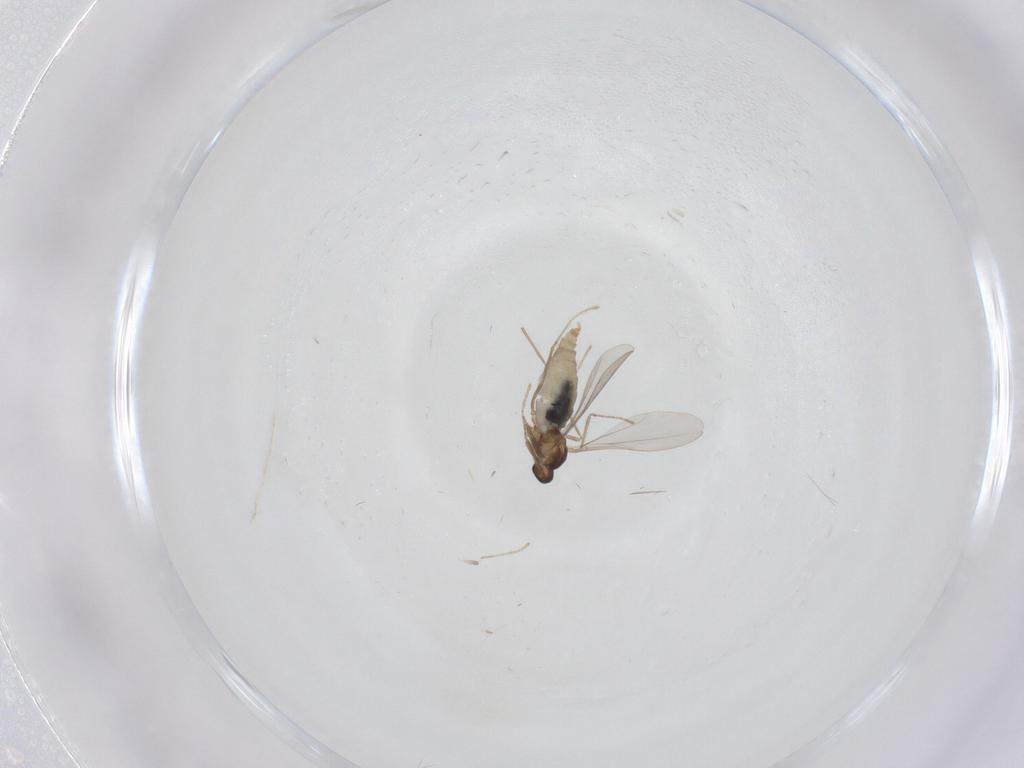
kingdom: Animalia
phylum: Arthropoda
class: Insecta
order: Diptera
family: Cecidomyiidae
